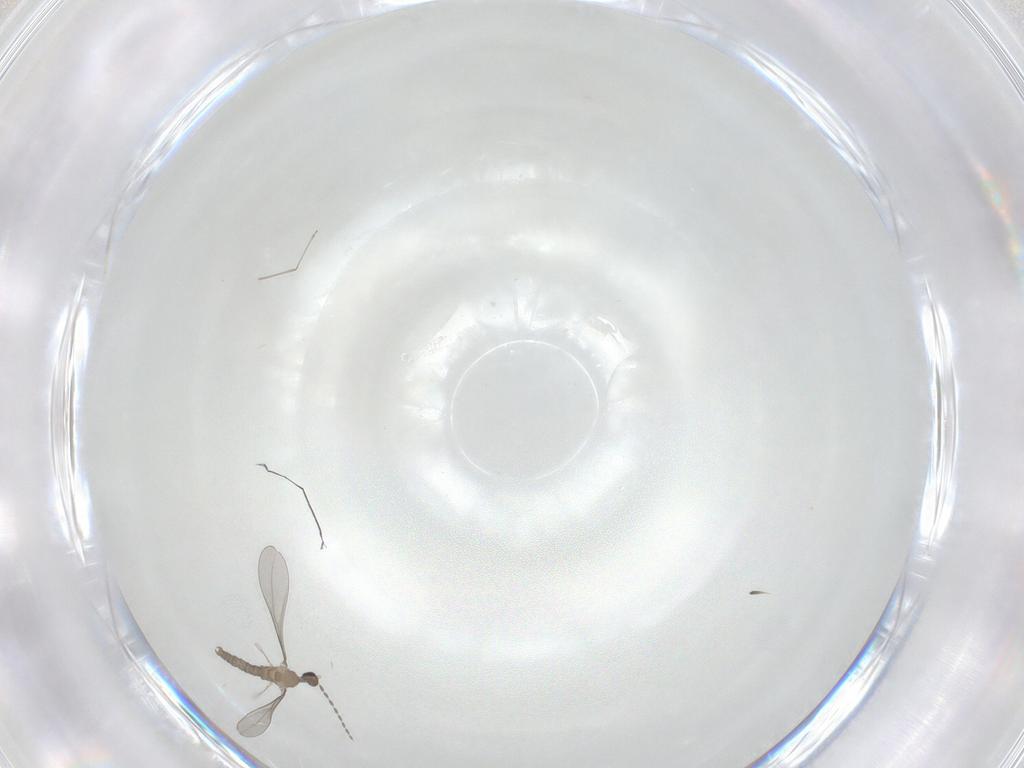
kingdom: Animalia
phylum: Arthropoda
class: Insecta
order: Diptera
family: Cecidomyiidae
